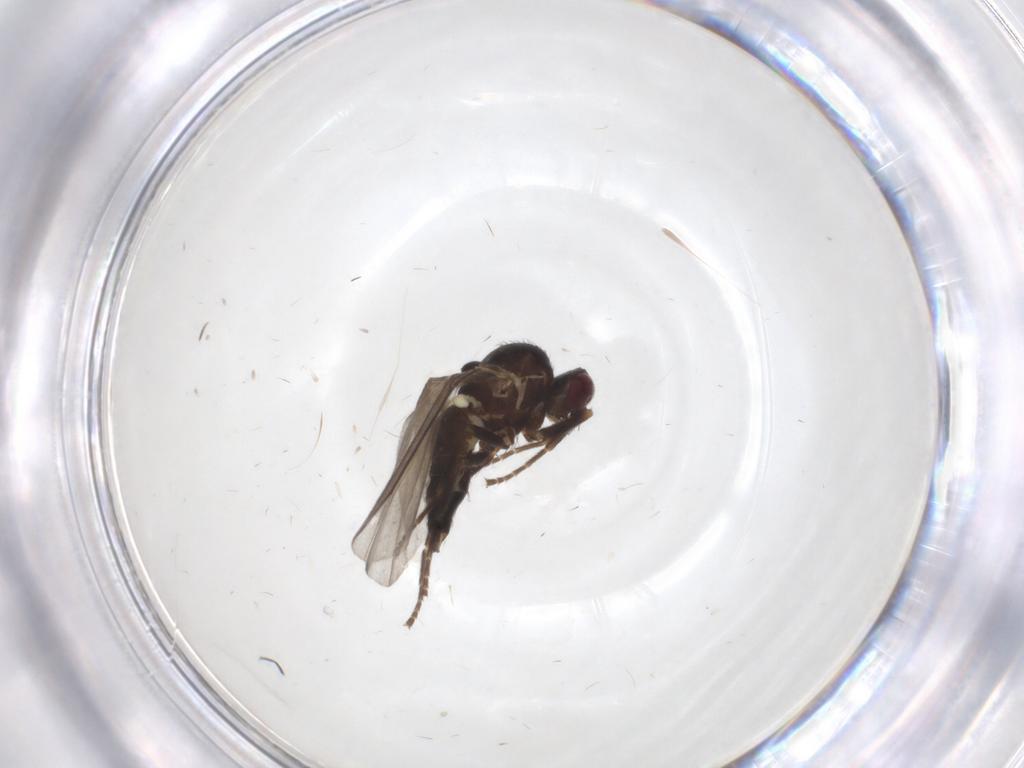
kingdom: Animalia
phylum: Arthropoda
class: Insecta
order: Diptera
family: Agromyzidae
